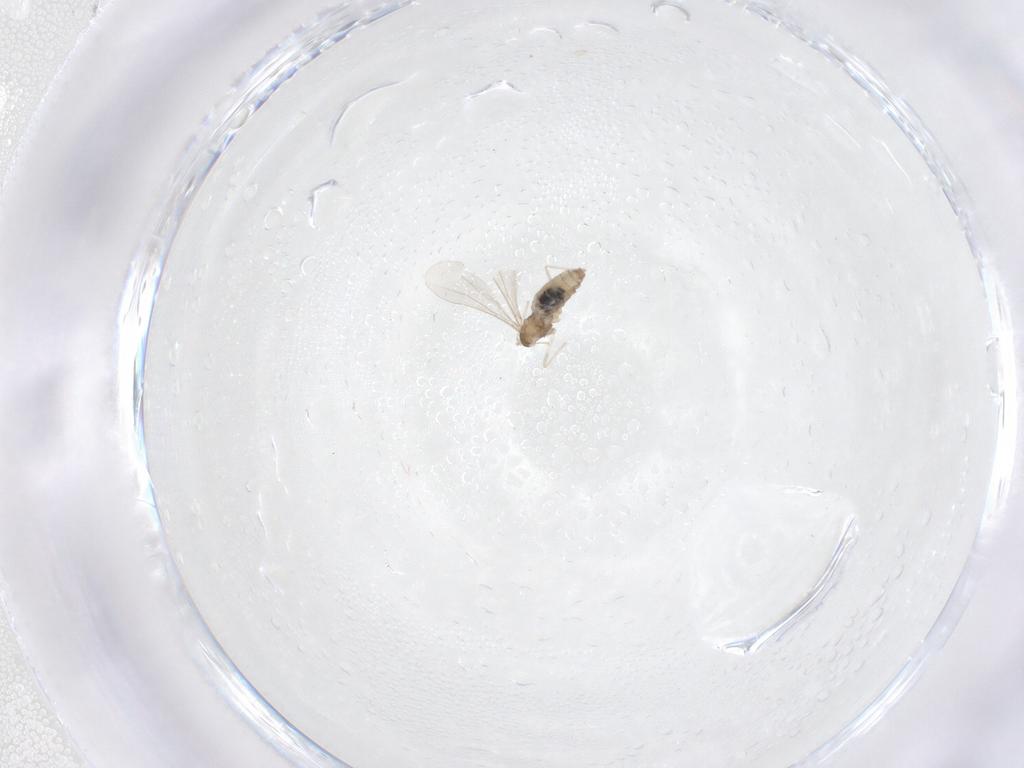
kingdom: Animalia
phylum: Arthropoda
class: Insecta
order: Diptera
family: Cecidomyiidae
